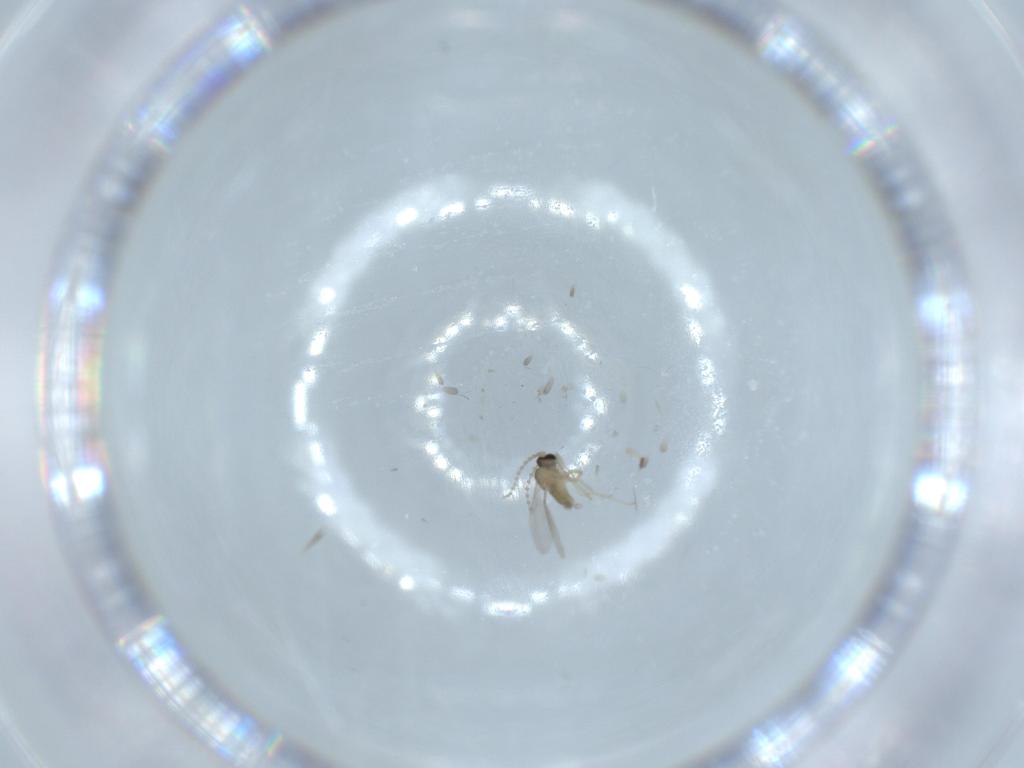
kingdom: Animalia
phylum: Arthropoda
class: Insecta
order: Diptera
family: Cecidomyiidae
